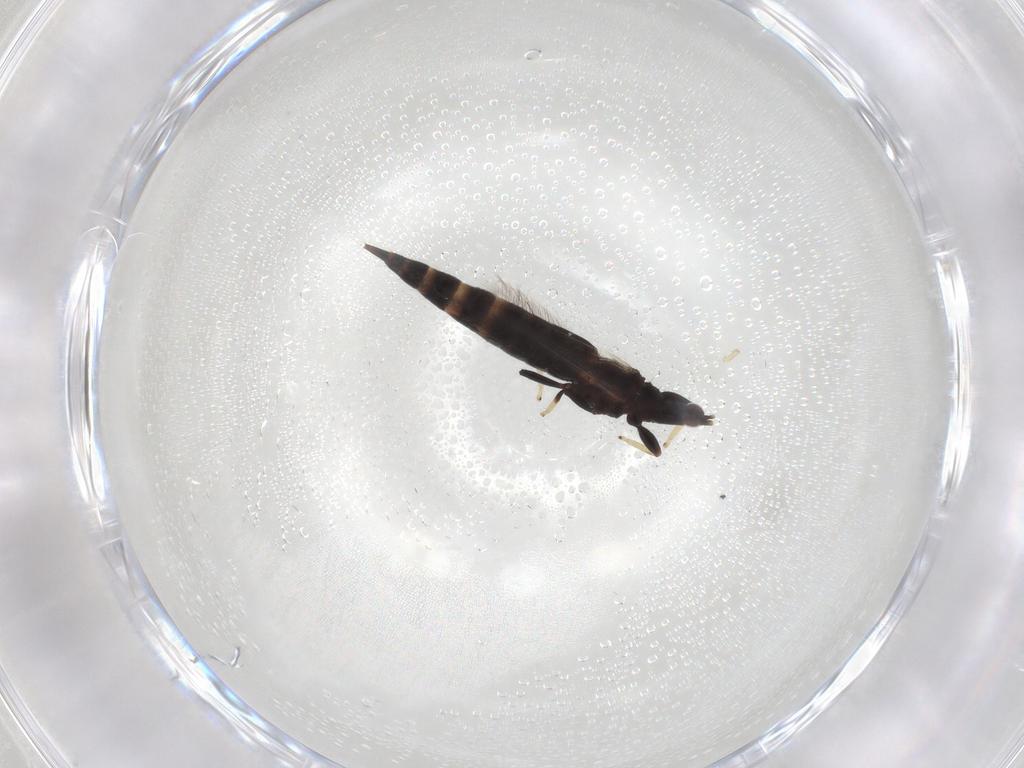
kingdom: Animalia
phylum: Arthropoda
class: Insecta
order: Thysanoptera
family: Phlaeothripidae
